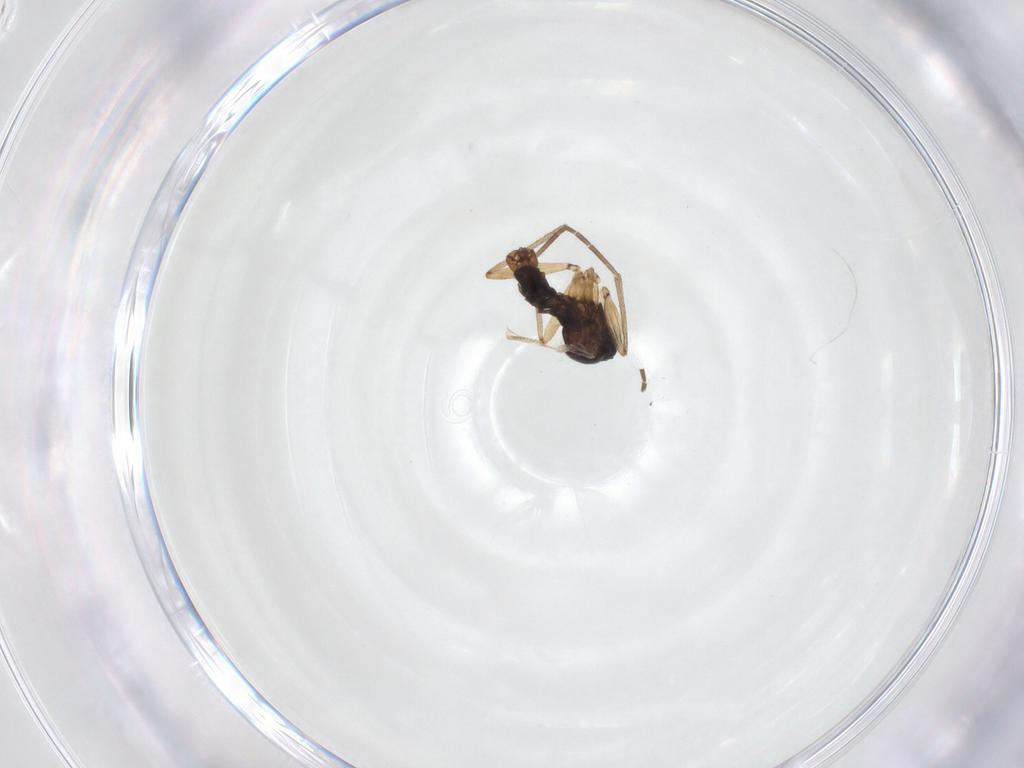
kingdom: Animalia
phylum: Arthropoda
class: Insecta
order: Diptera
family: Sciaridae
